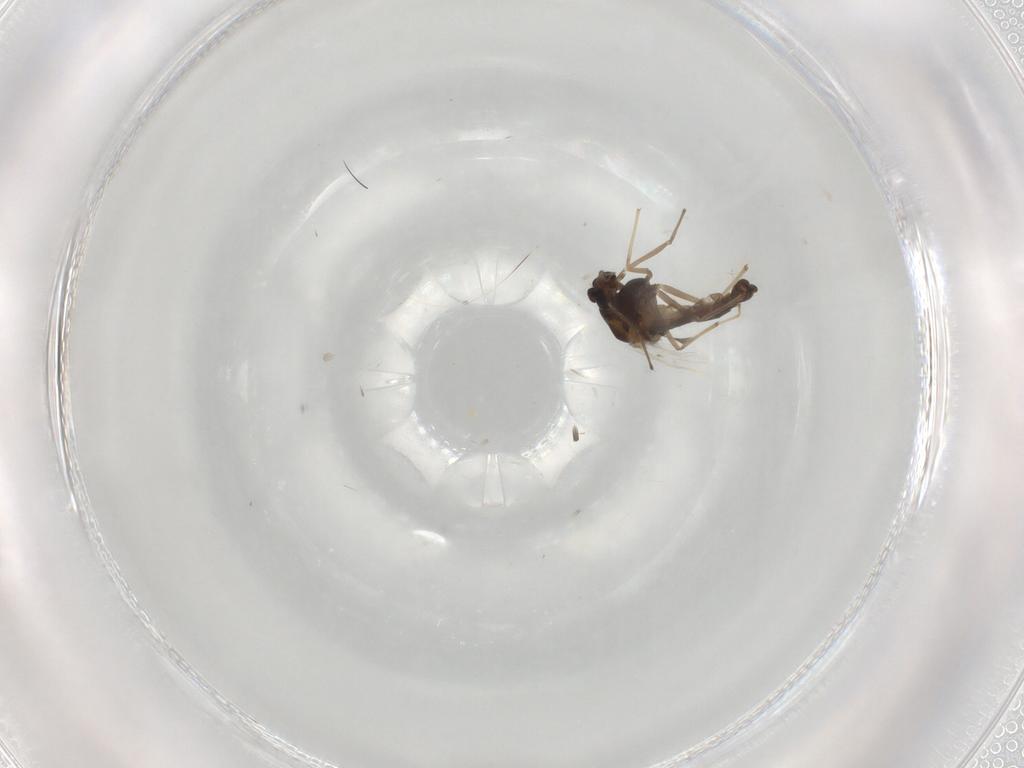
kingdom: Animalia
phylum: Arthropoda
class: Insecta
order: Diptera
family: Chironomidae
